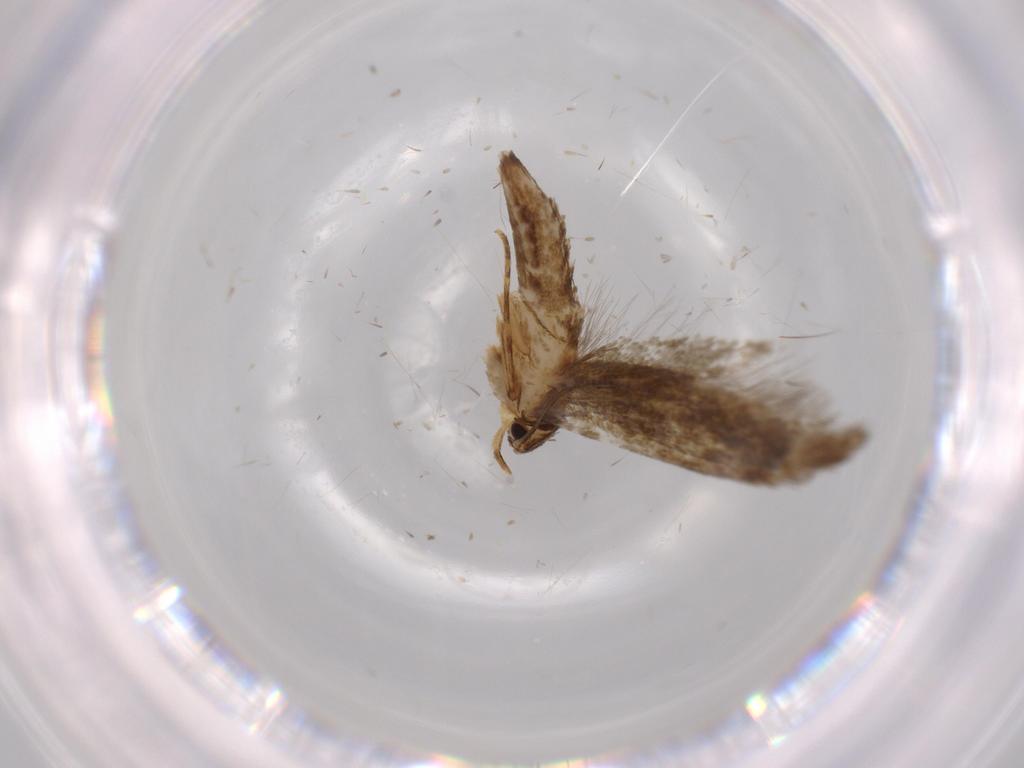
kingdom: Animalia
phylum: Arthropoda
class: Insecta
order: Lepidoptera
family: Tineidae
